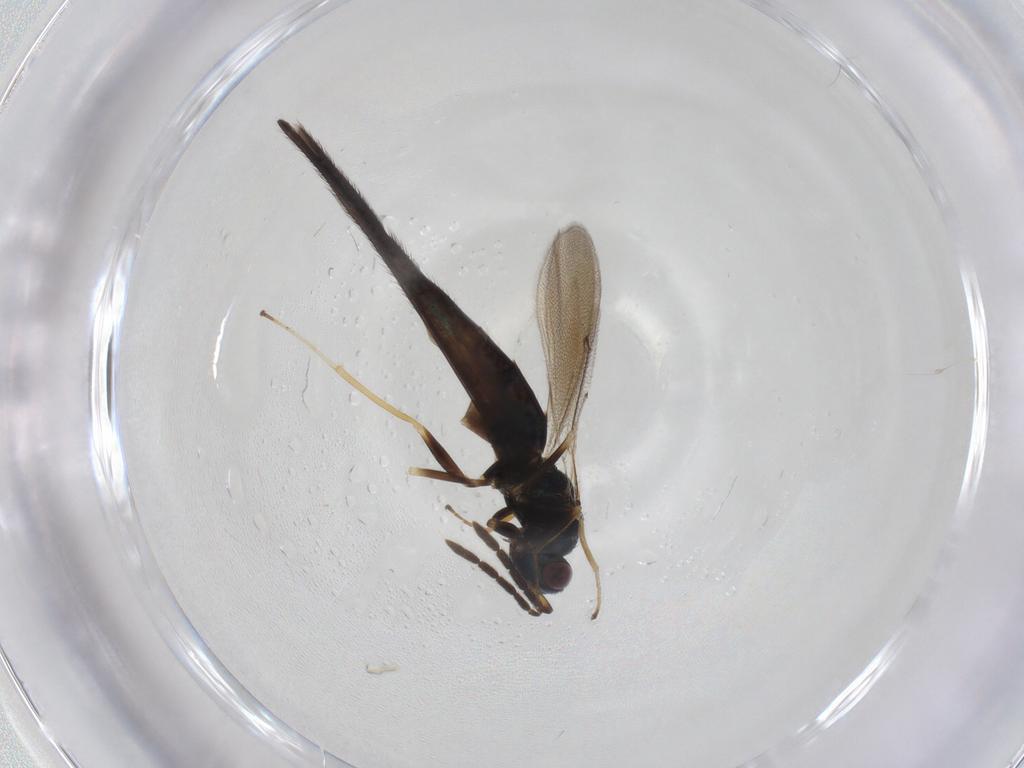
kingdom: Animalia
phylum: Arthropoda
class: Insecta
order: Hymenoptera
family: Eulophidae
